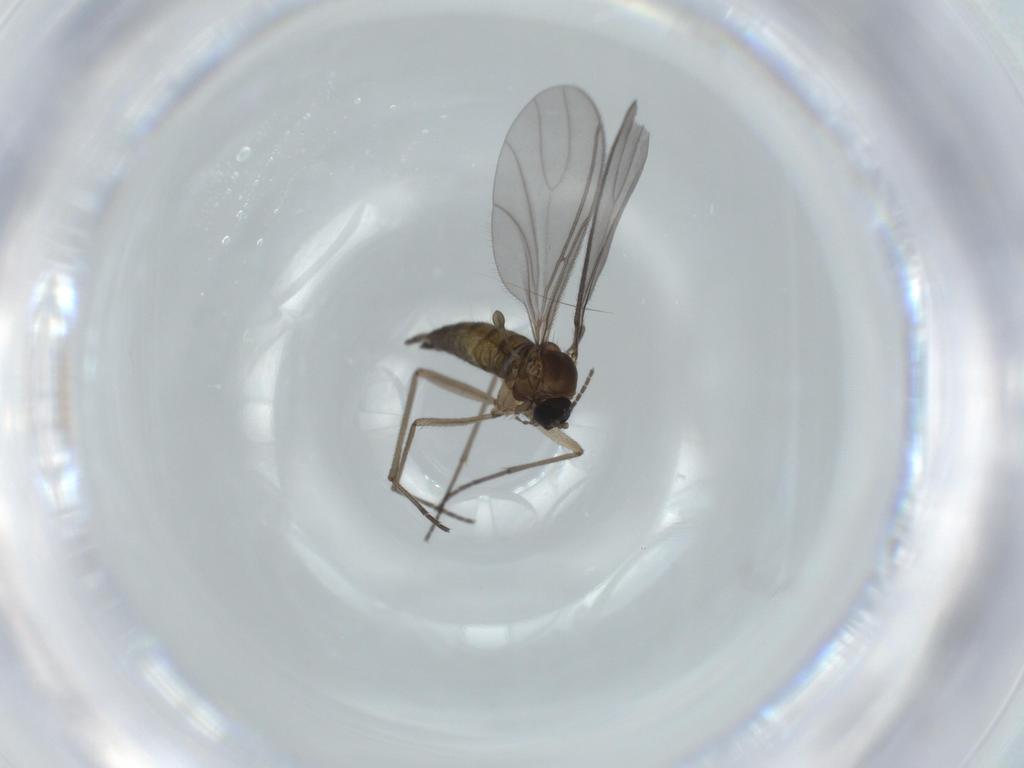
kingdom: Animalia
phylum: Arthropoda
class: Insecta
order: Diptera
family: Sciaridae
